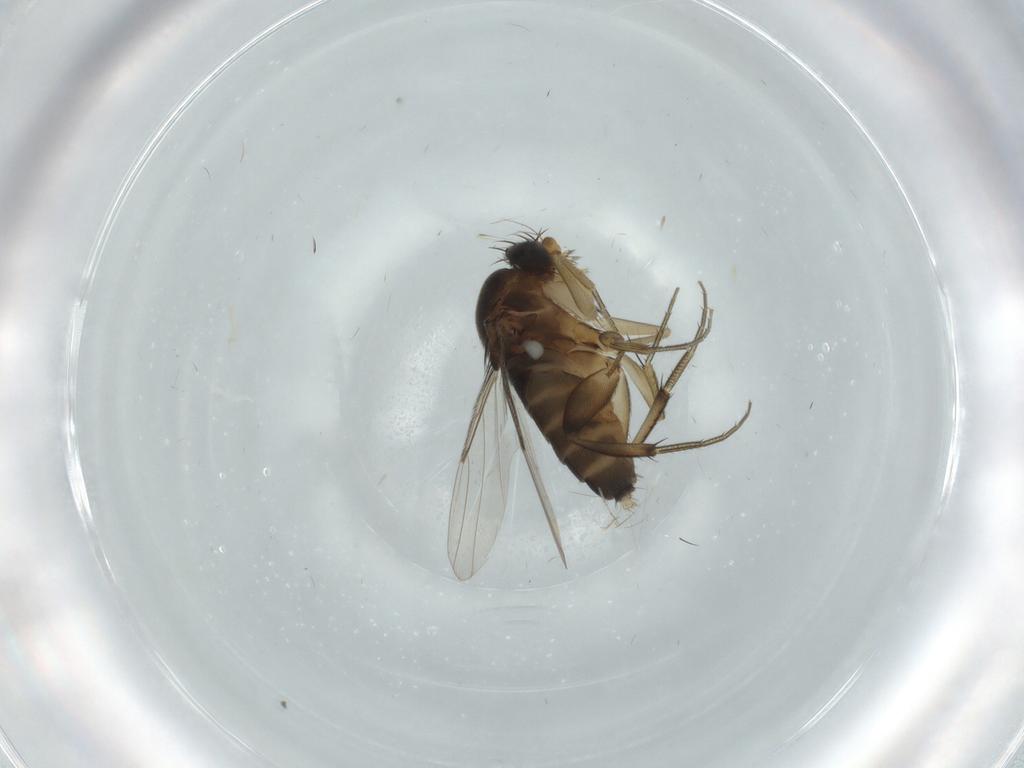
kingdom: Animalia
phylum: Arthropoda
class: Insecta
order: Diptera
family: Phoridae
